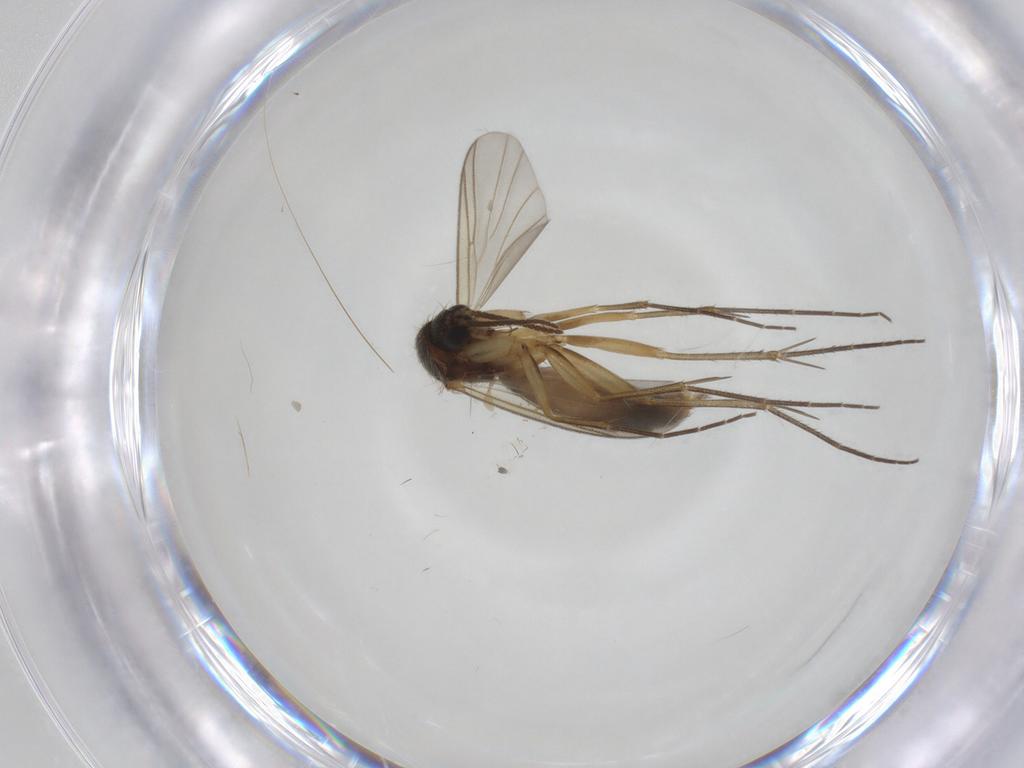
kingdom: Animalia
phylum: Arthropoda
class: Insecta
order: Diptera
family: Mycetophilidae
